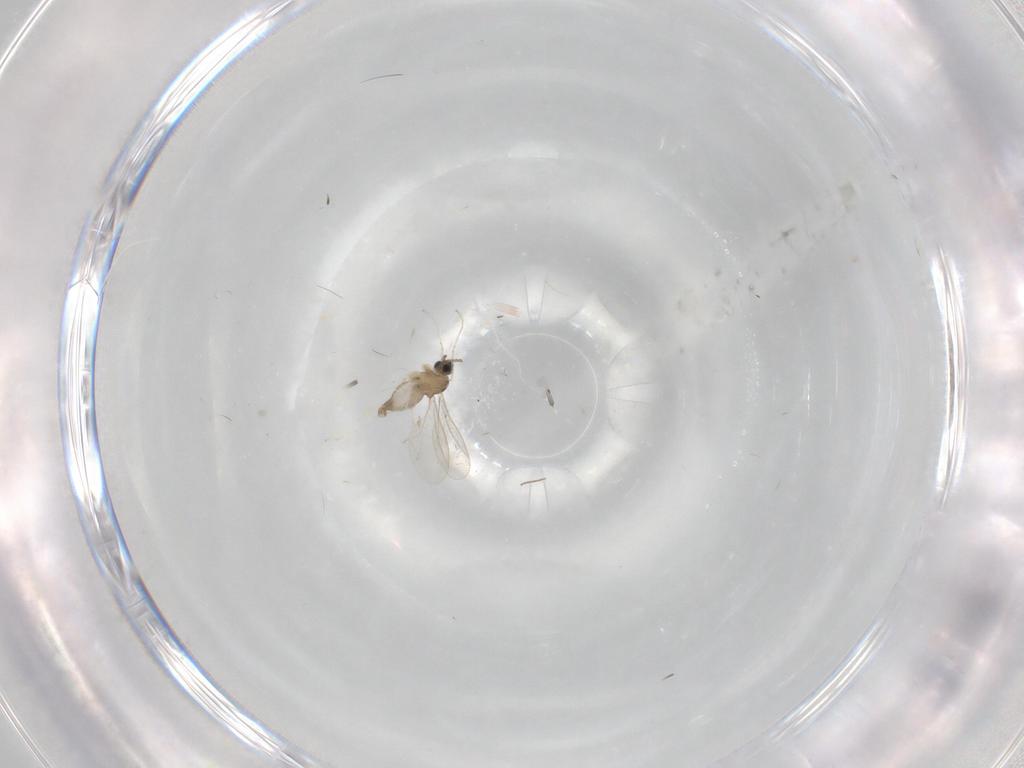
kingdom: Animalia
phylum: Arthropoda
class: Insecta
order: Diptera
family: Cecidomyiidae
